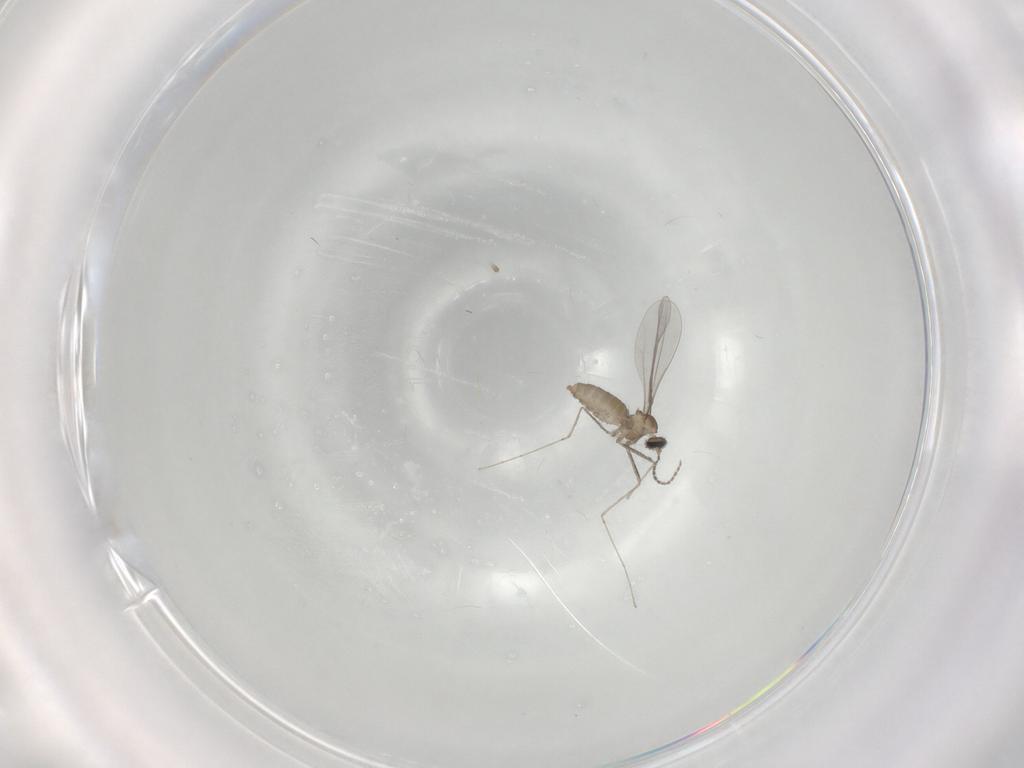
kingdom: Animalia
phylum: Arthropoda
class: Insecta
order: Diptera
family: Cecidomyiidae
